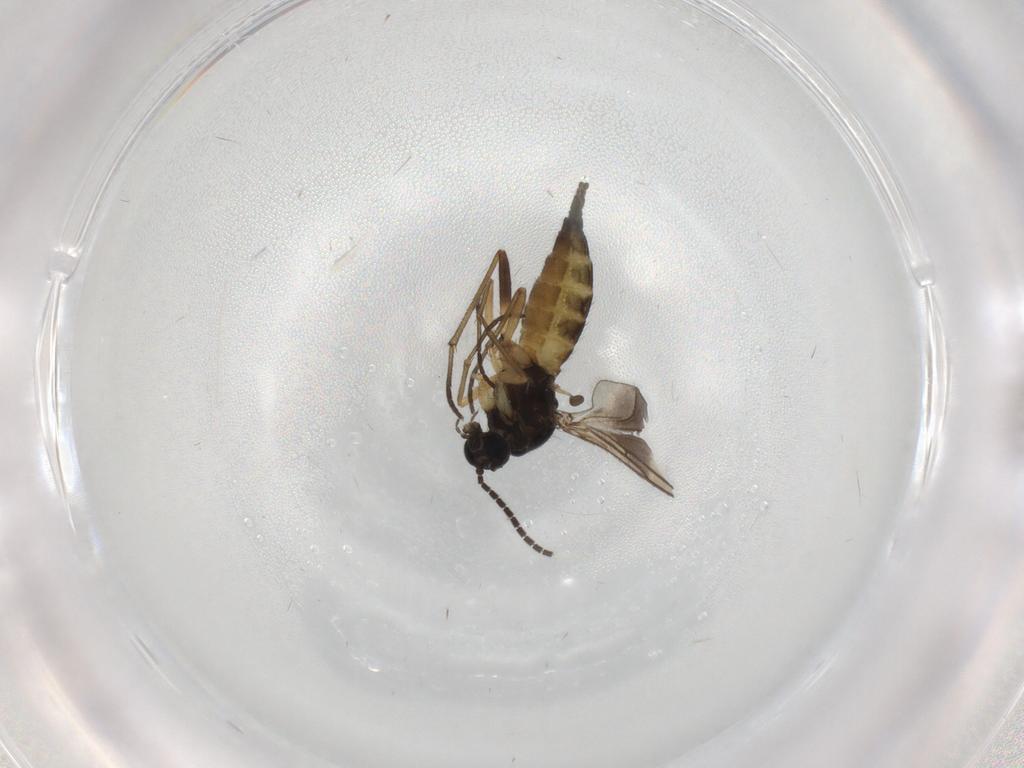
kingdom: Animalia
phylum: Arthropoda
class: Insecta
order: Diptera
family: Sciaridae
